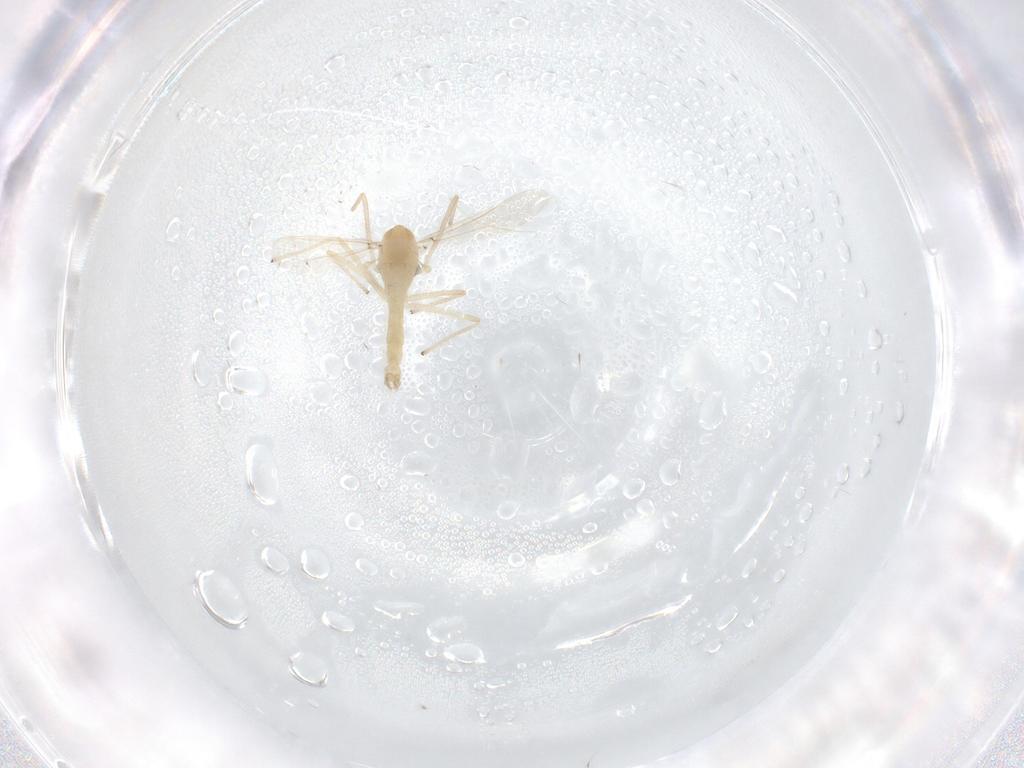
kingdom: Animalia
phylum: Arthropoda
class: Insecta
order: Diptera
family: Chironomidae
